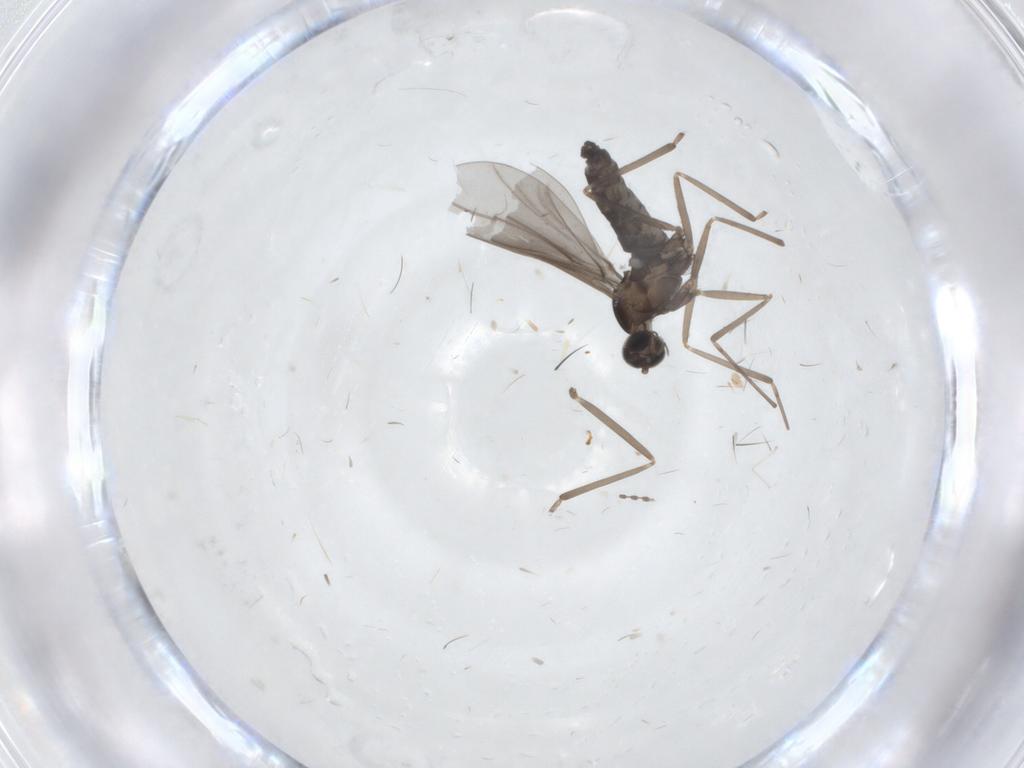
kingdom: Animalia
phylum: Arthropoda
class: Insecta
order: Diptera
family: Cecidomyiidae
